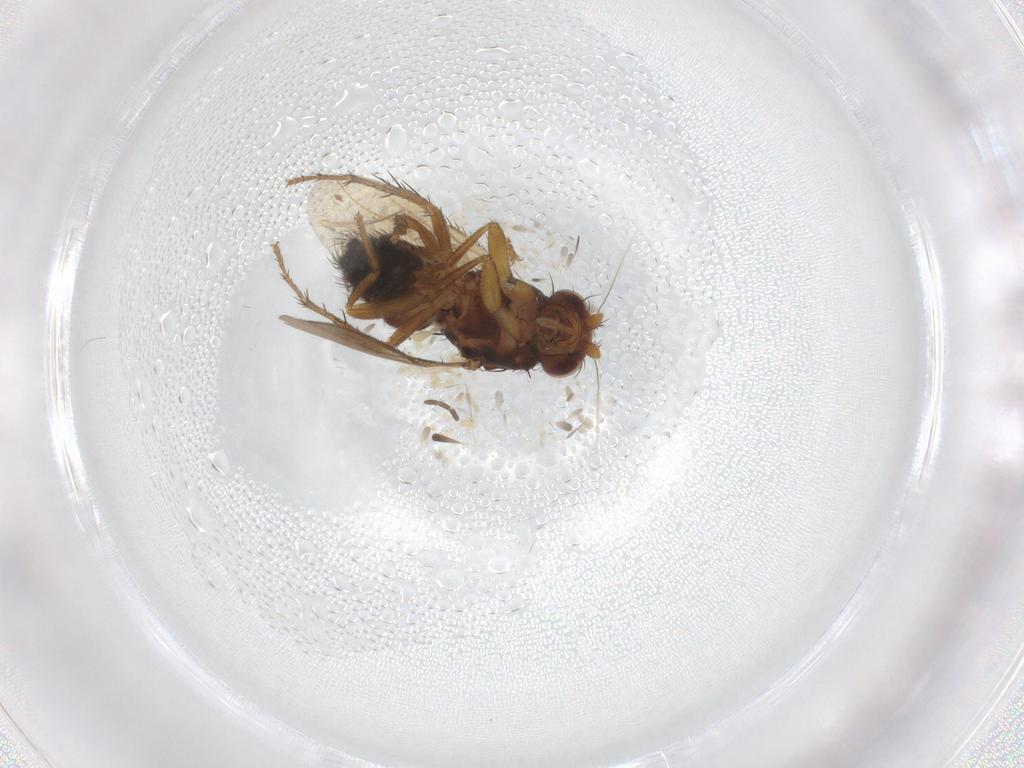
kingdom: Animalia
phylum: Arthropoda
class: Insecta
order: Diptera
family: Sphaeroceridae
